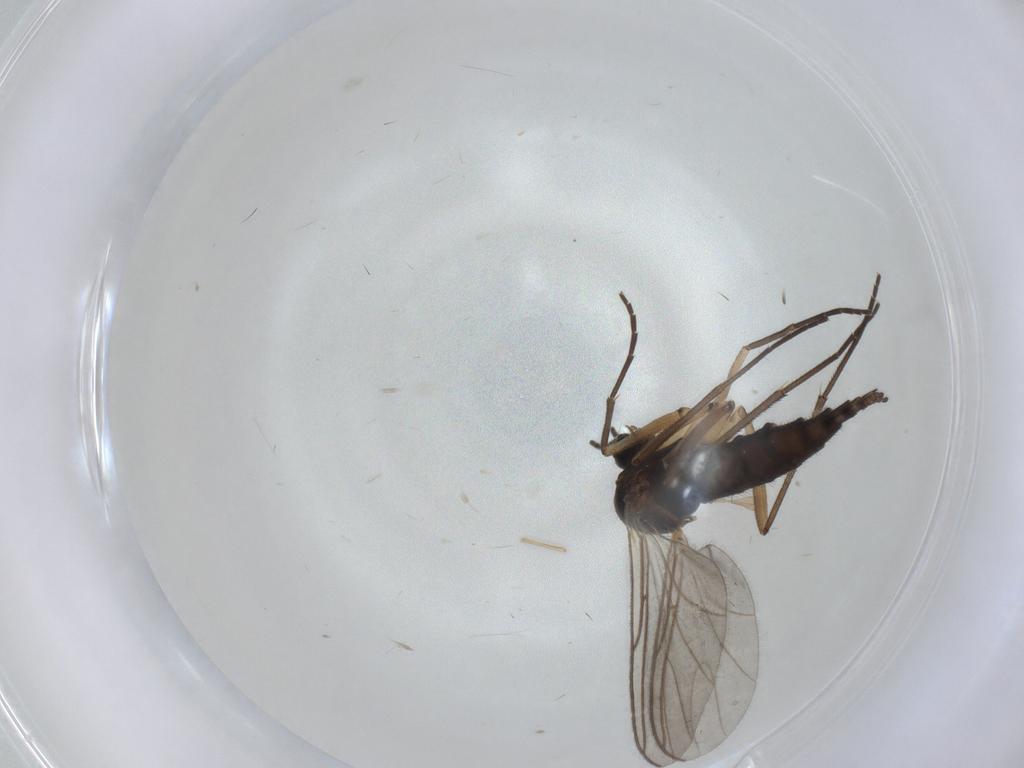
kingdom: Animalia
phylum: Arthropoda
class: Insecta
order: Diptera
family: Sciaridae
